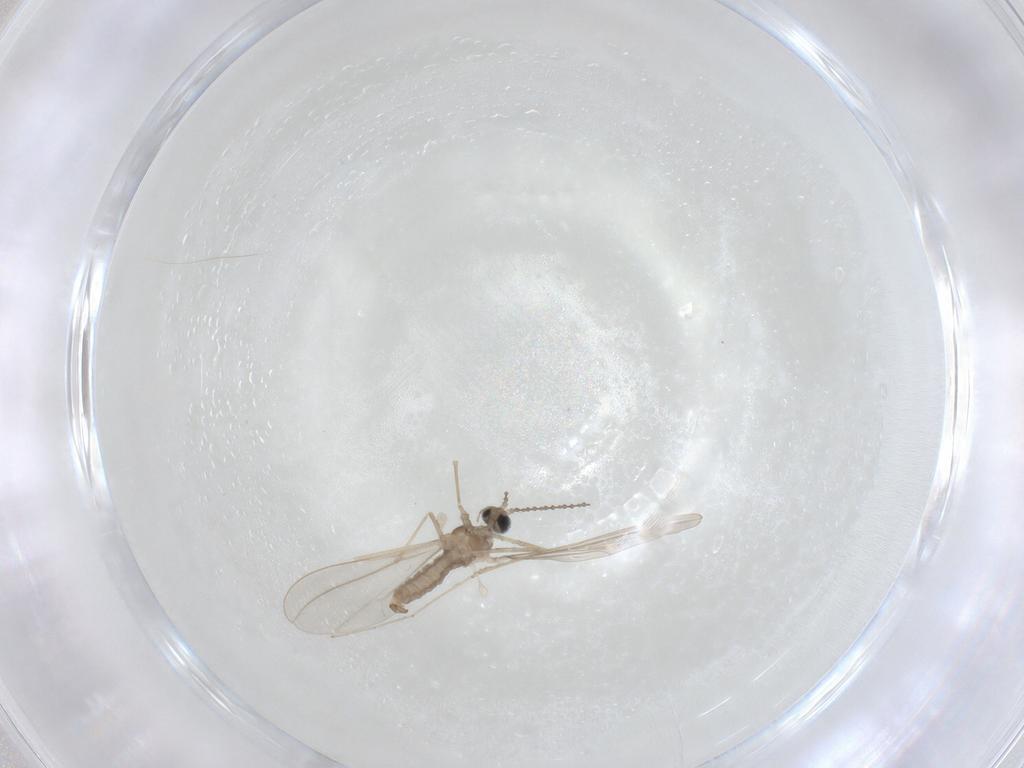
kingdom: Animalia
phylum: Arthropoda
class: Insecta
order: Diptera
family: Cecidomyiidae
